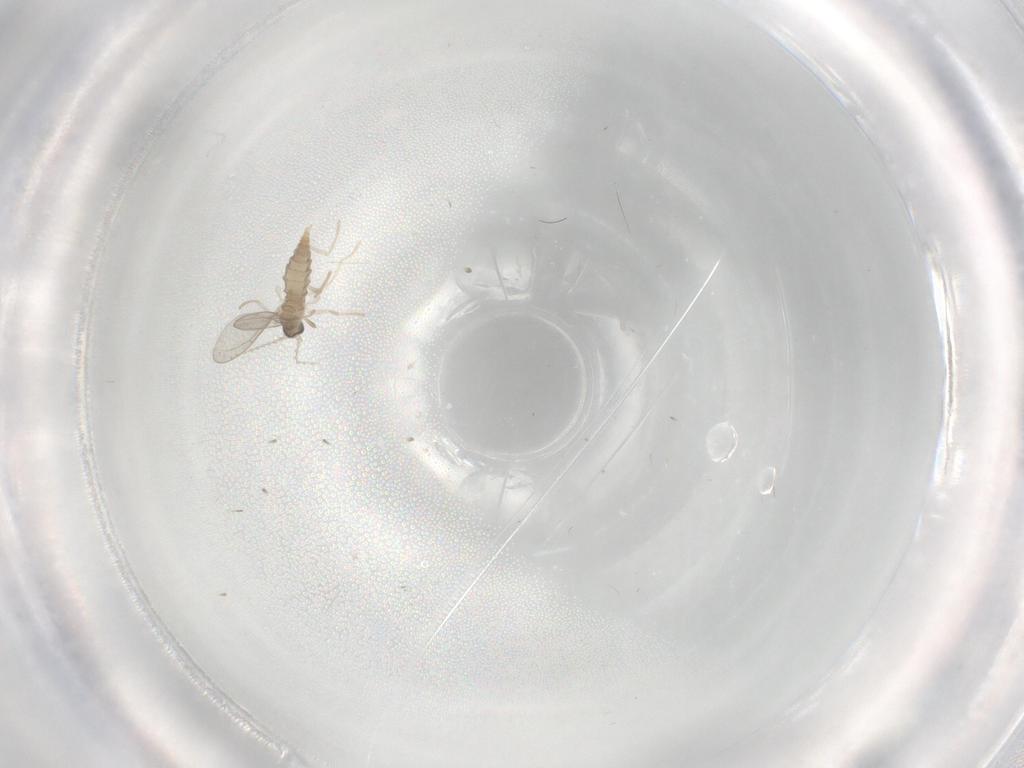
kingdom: Animalia
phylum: Arthropoda
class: Insecta
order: Diptera
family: Cecidomyiidae
